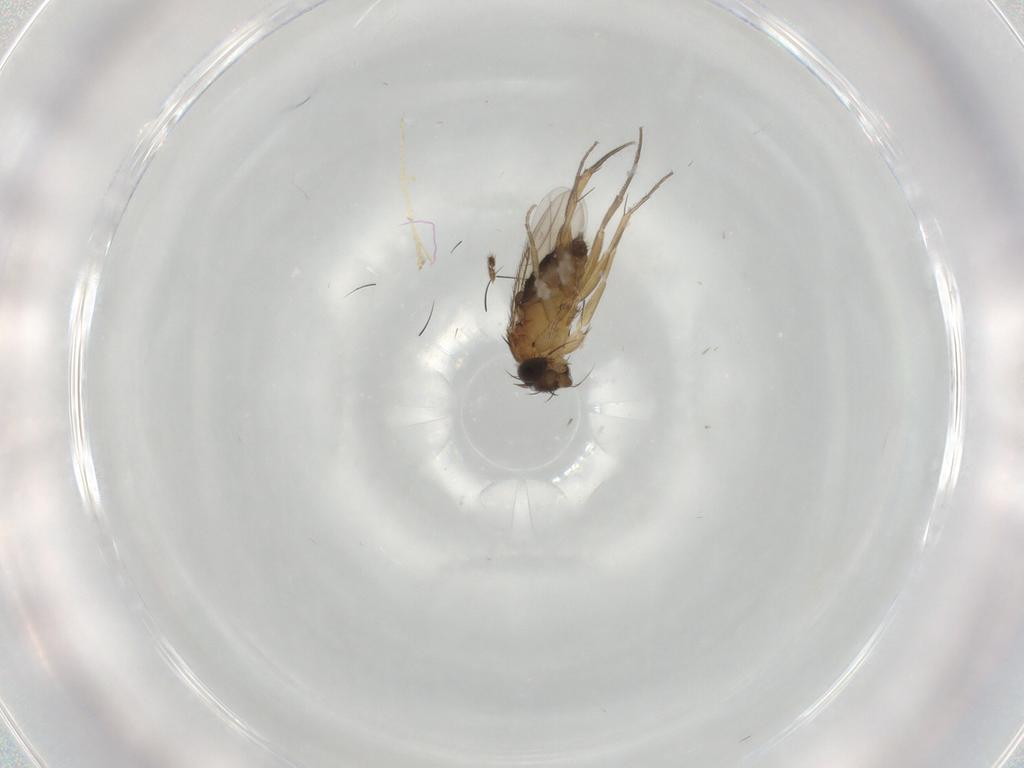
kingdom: Animalia
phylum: Arthropoda
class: Insecta
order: Diptera
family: Phoridae
